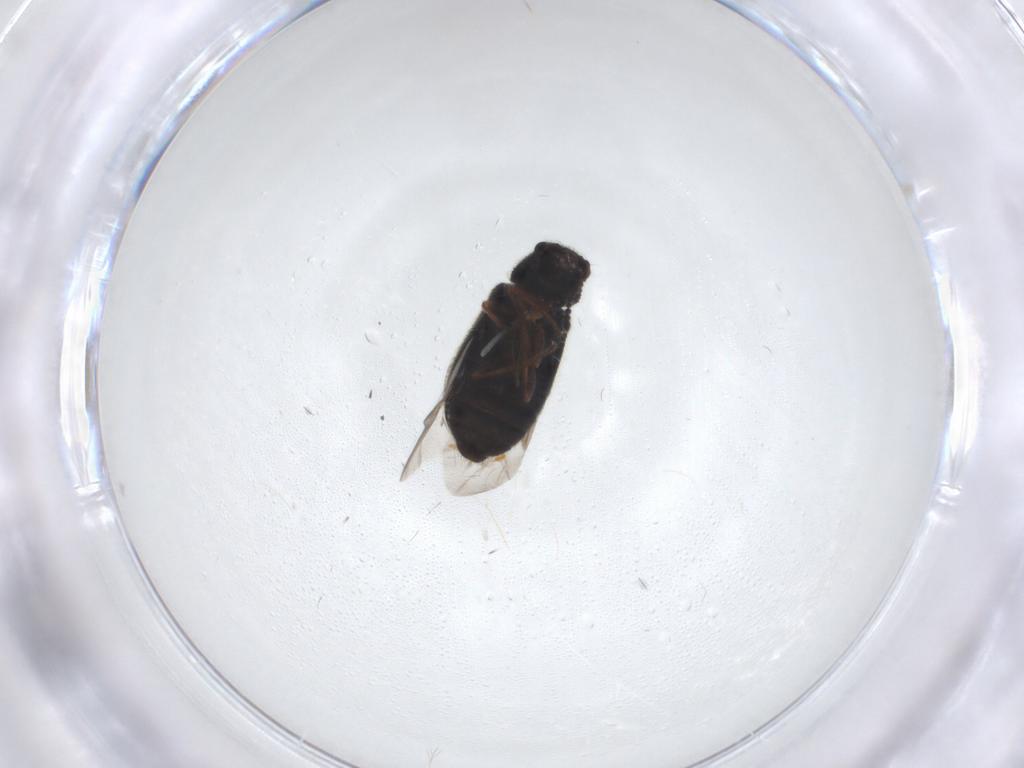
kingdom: Animalia
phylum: Arthropoda
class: Insecta
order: Coleoptera
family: Melyridae
